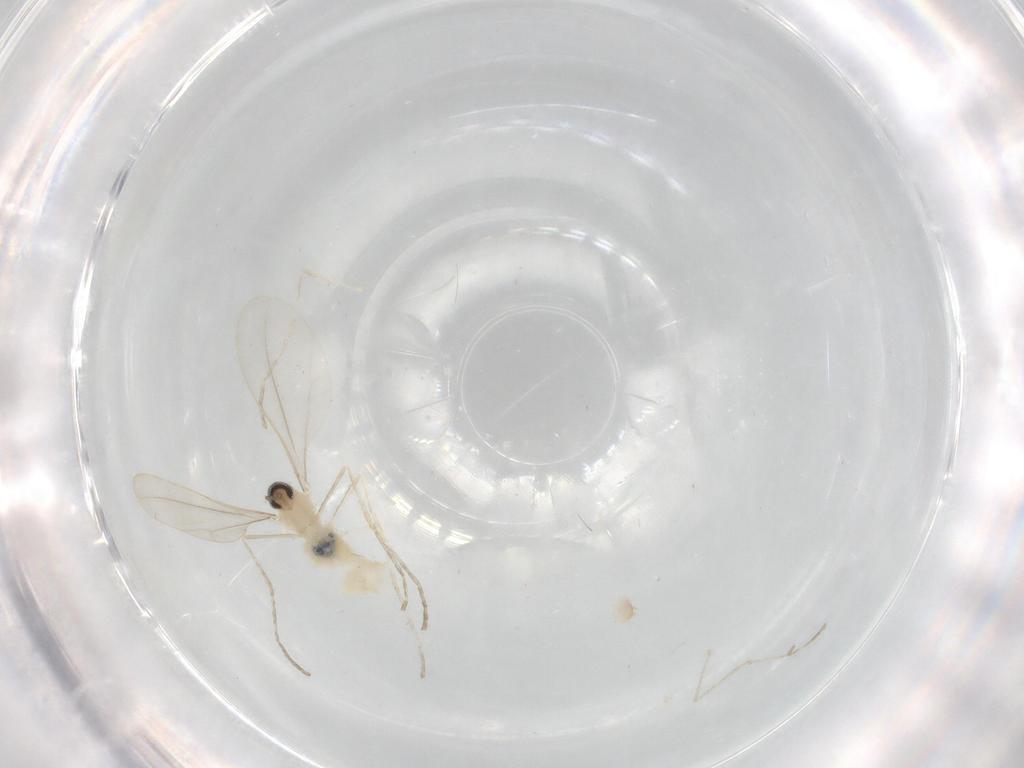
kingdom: Animalia
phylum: Arthropoda
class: Insecta
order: Diptera
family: Cecidomyiidae
